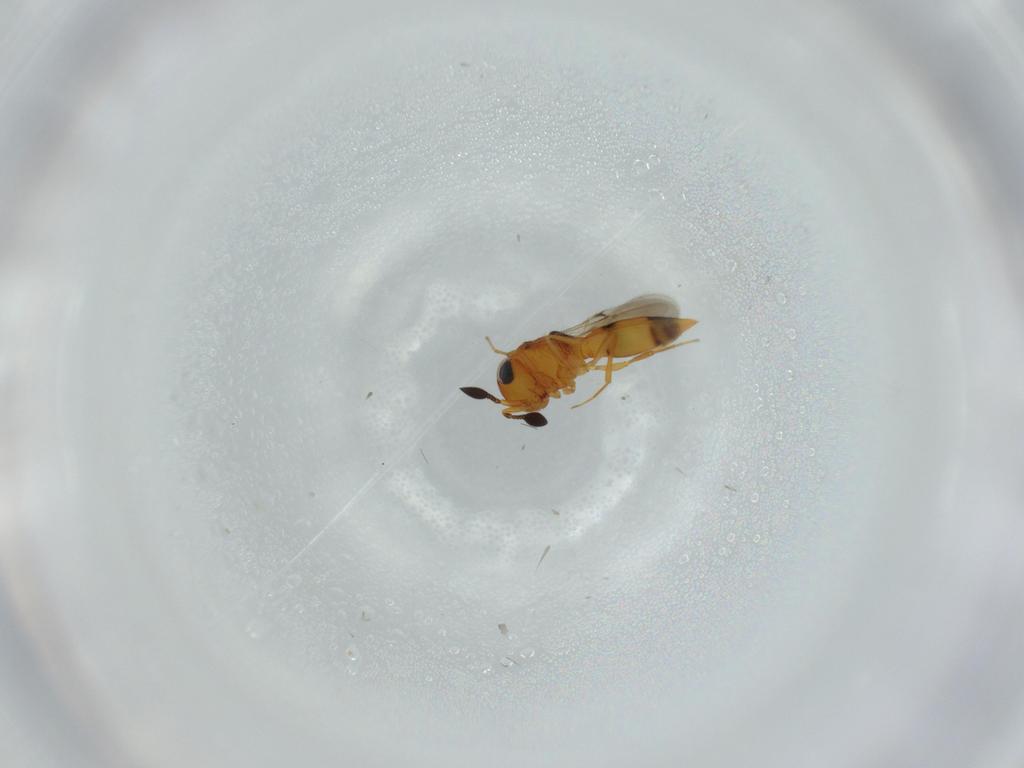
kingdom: Animalia
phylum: Arthropoda
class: Insecta
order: Hymenoptera
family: Scelionidae
